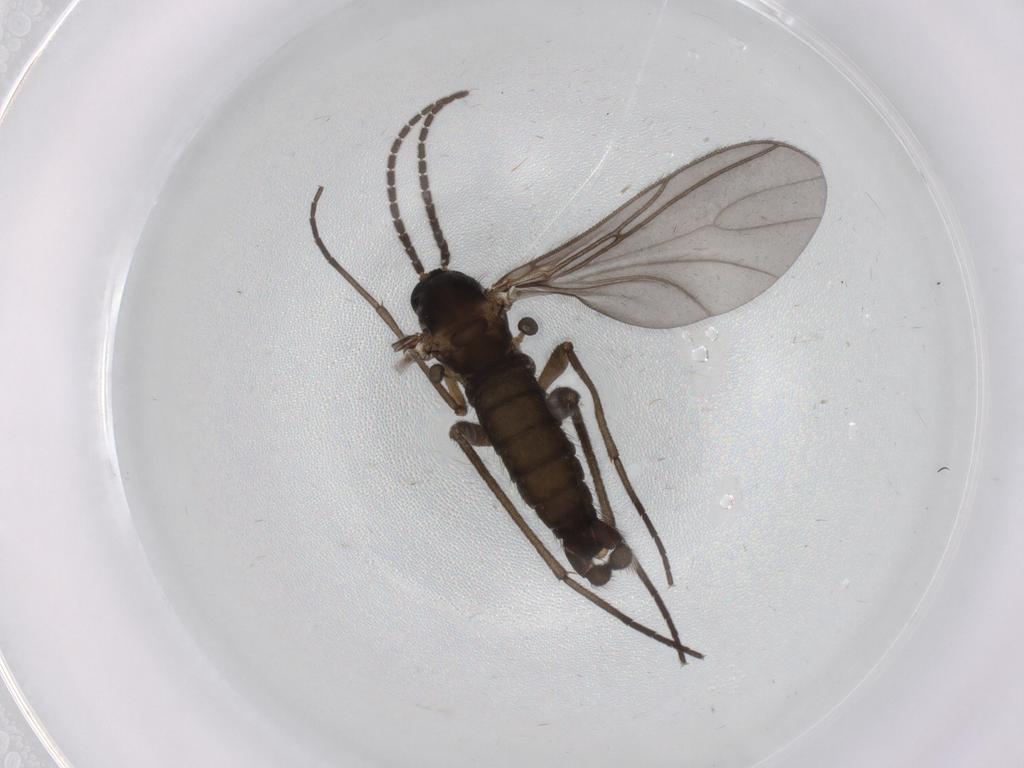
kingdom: Animalia
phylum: Arthropoda
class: Insecta
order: Diptera
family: Sciaridae
